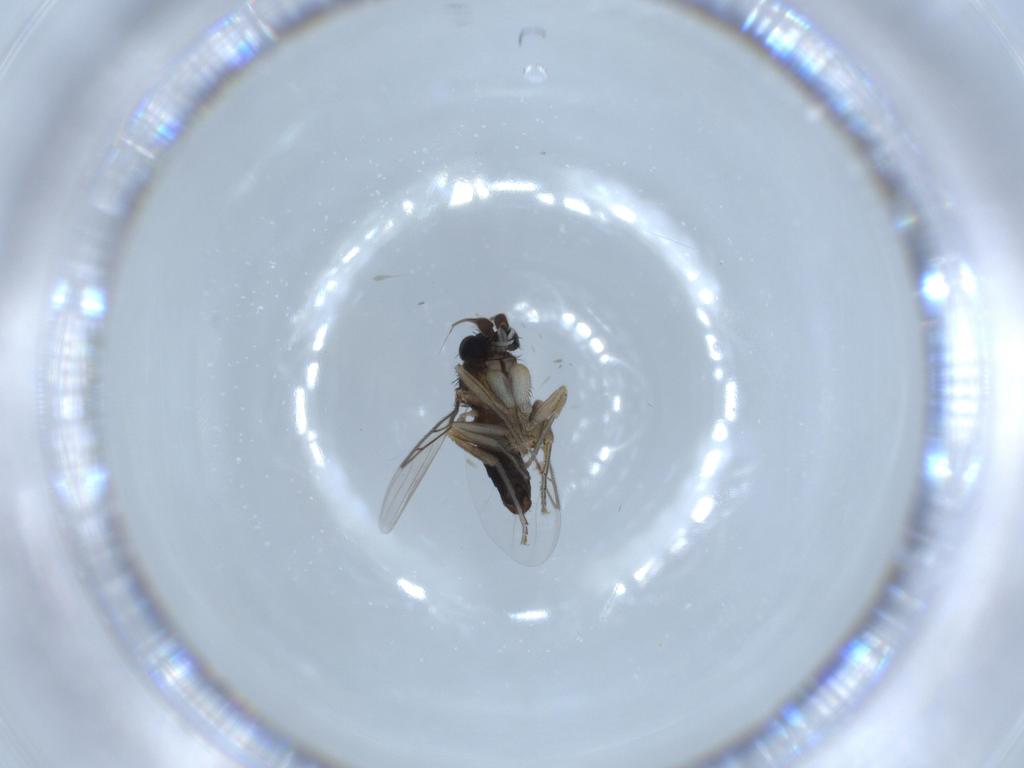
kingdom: Animalia
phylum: Arthropoda
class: Insecta
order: Diptera
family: Phoridae
